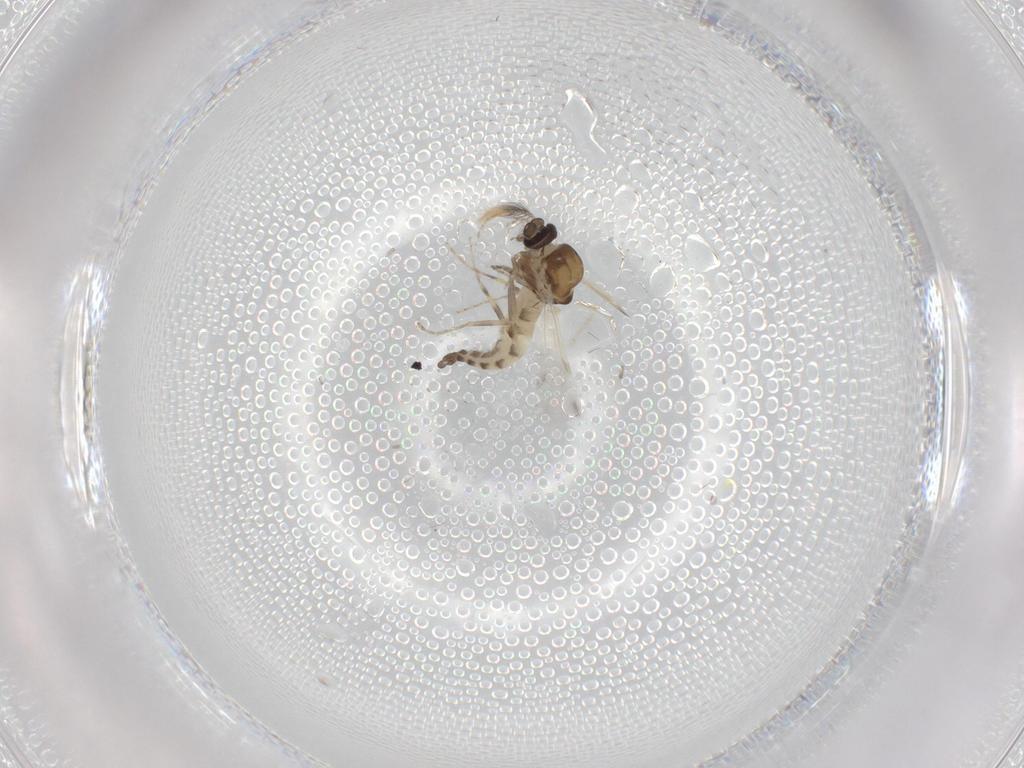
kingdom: Animalia
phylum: Arthropoda
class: Insecta
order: Diptera
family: Ceratopogonidae
